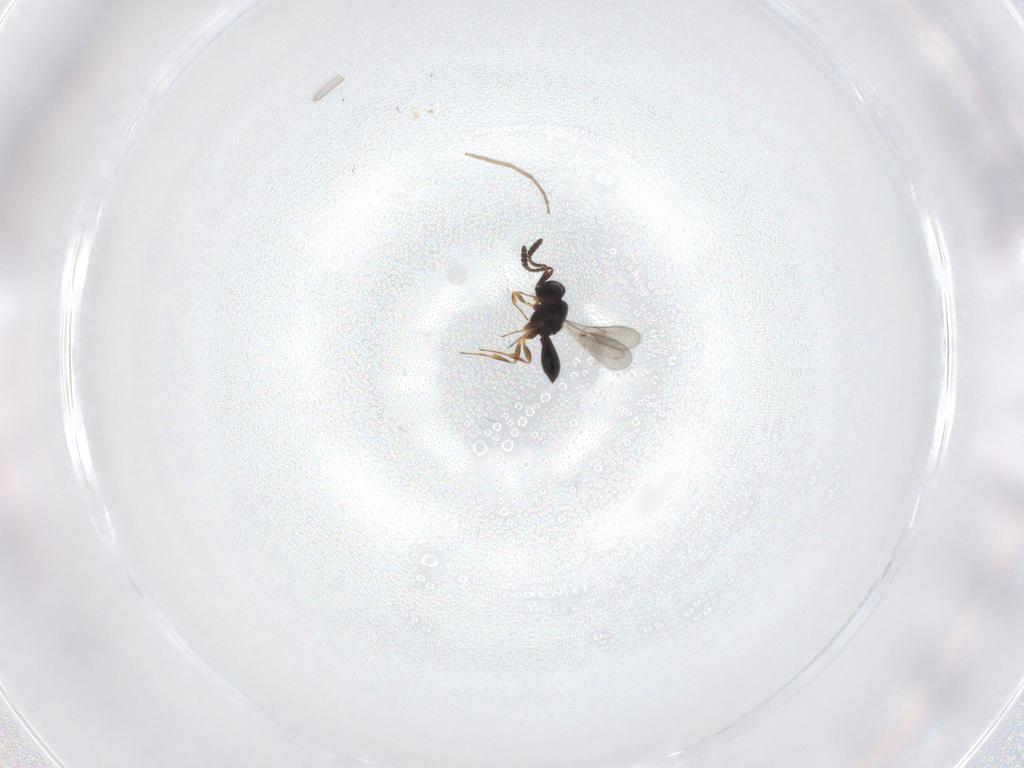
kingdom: Animalia
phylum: Arthropoda
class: Insecta
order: Hymenoptera
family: Scelionidae
